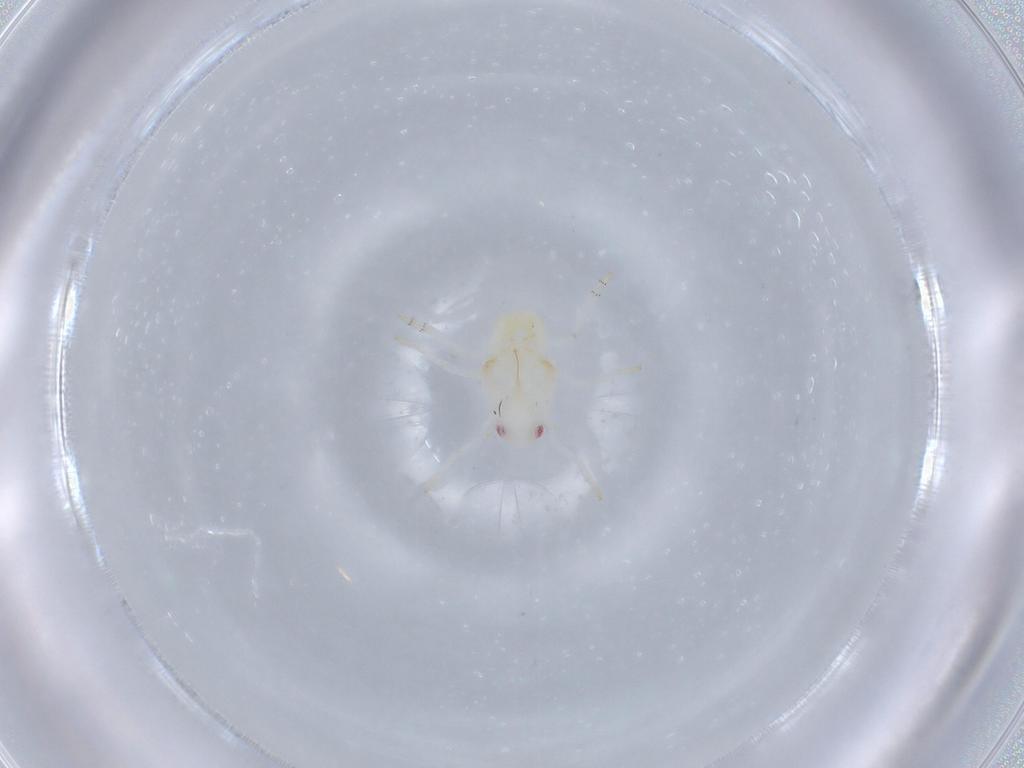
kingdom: Animalia
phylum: Arthropoda
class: Insecta
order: Hemiptera
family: Flatidae
